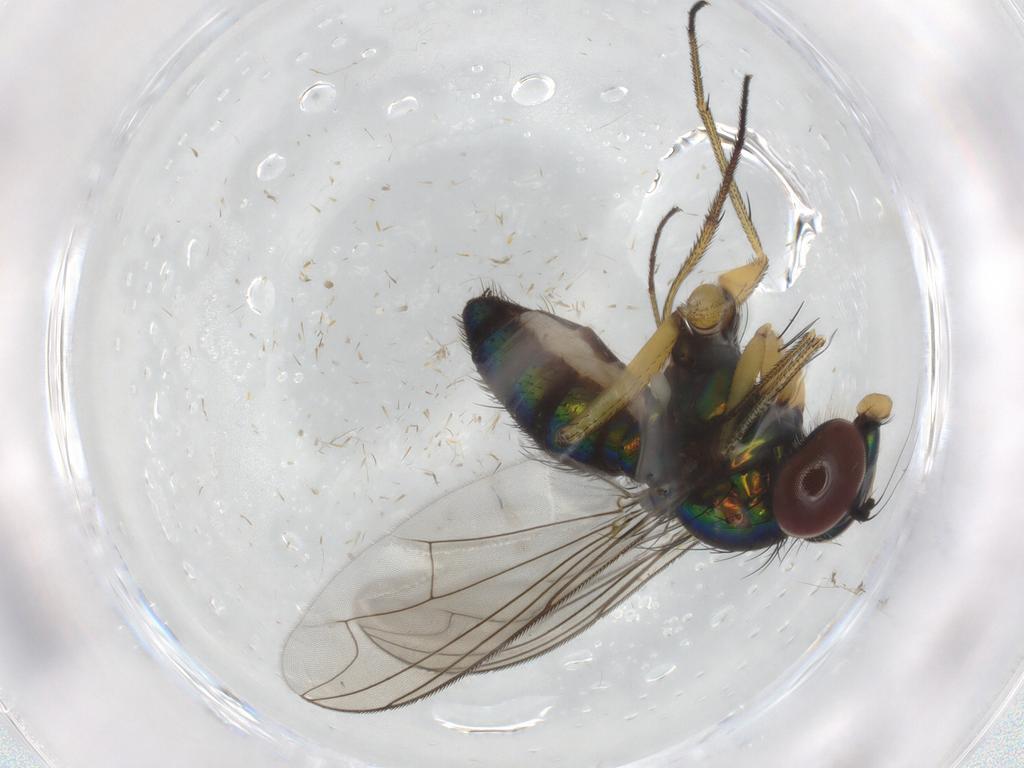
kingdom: Animalia
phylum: Arthropoda
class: Insecta
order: Diptera
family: Dolichopodidae
